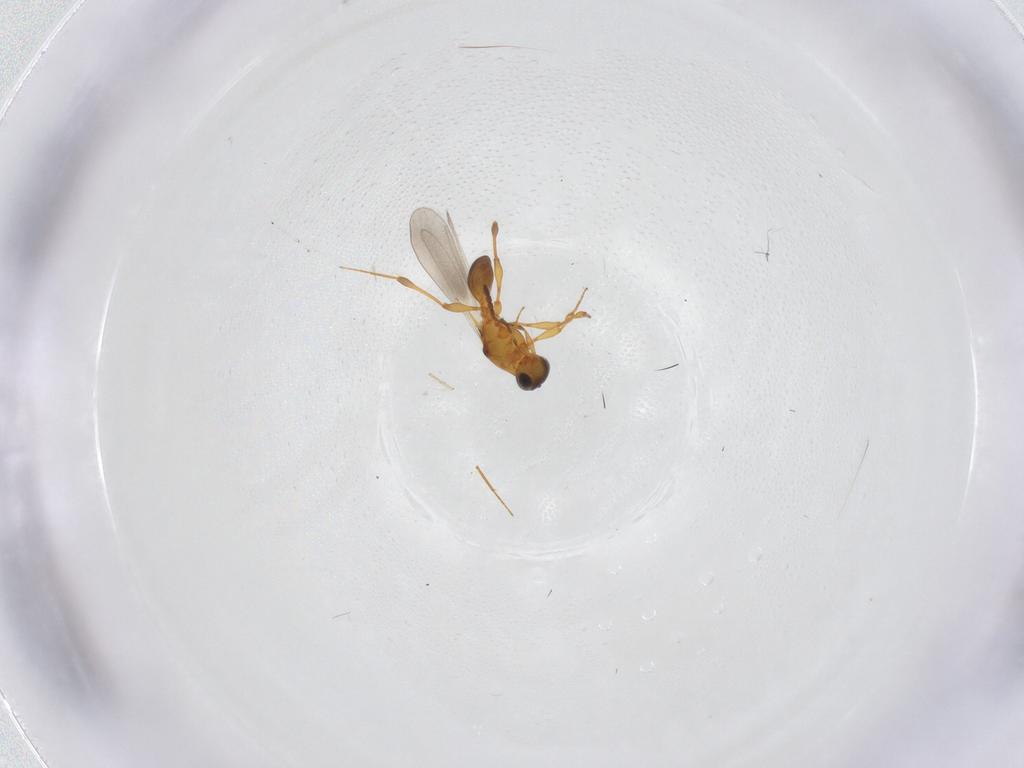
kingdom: Animalia
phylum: Arthropoda
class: Insecta
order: Hymenoptera
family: Platygastridae
